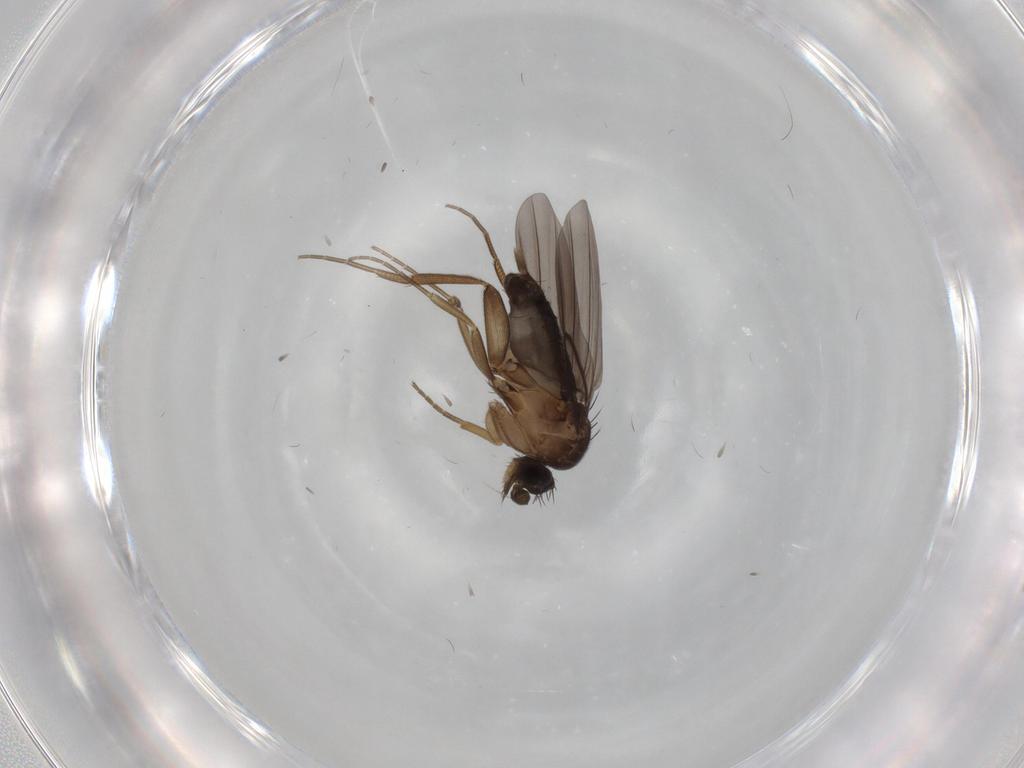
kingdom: Animalia
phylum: Arthropoda
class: Insecta
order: Diptera
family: Phoridae
